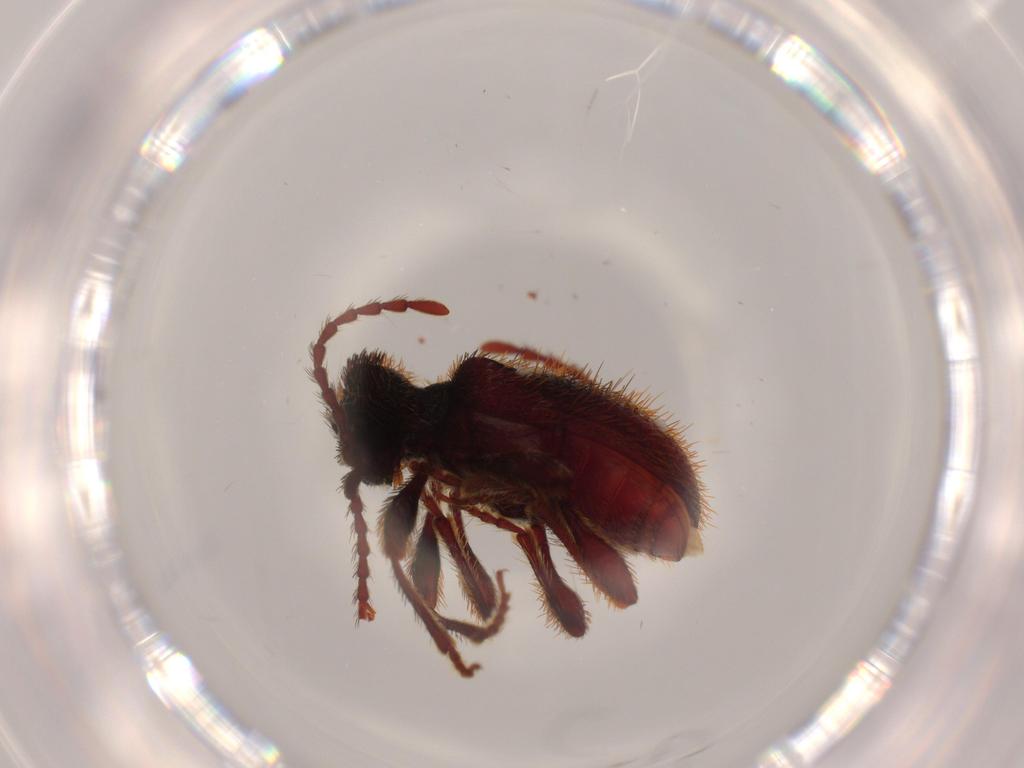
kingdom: Animalia
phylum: Arthropoda
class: Insecta
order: Coleoptera
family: Ptinidae
